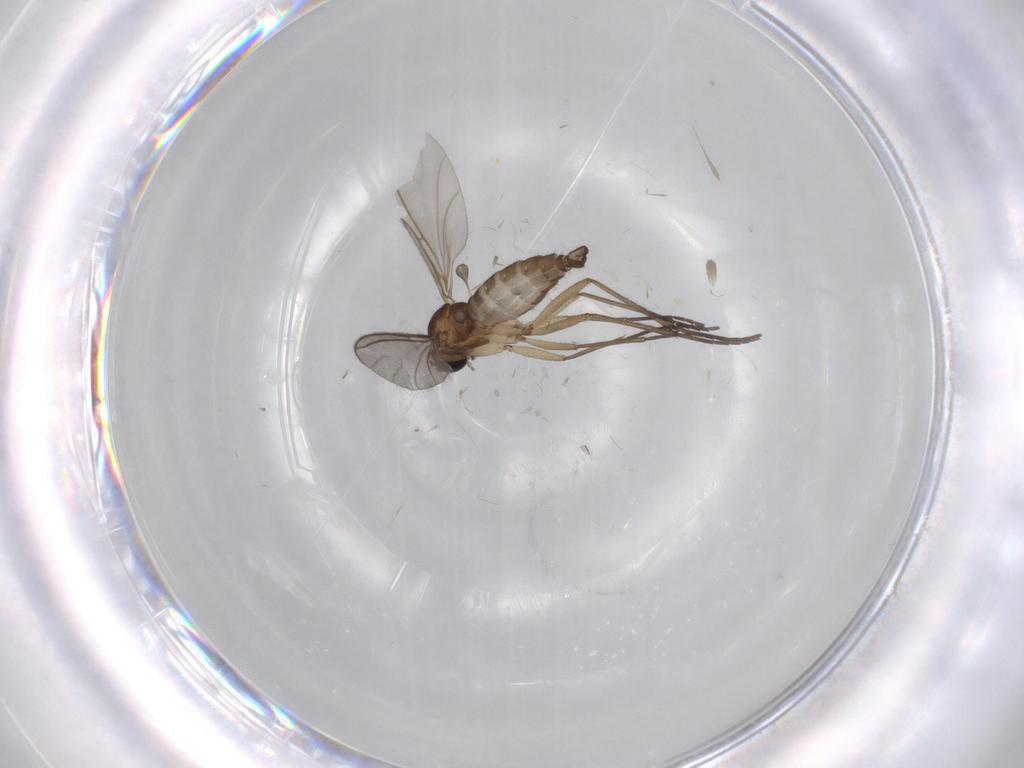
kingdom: Animalia
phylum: Arthropoda
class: Insecta
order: Diptera
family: Sciaridae
